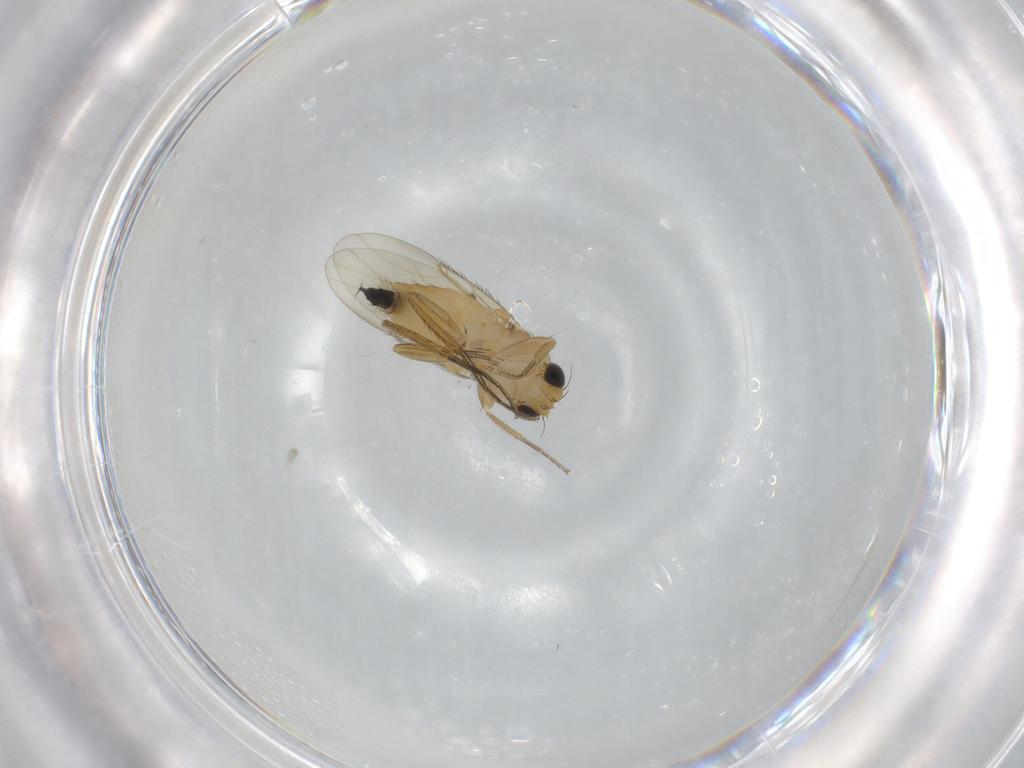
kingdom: Animalia
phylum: Arthropoda
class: Insecta
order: Diptera
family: Phoridae
